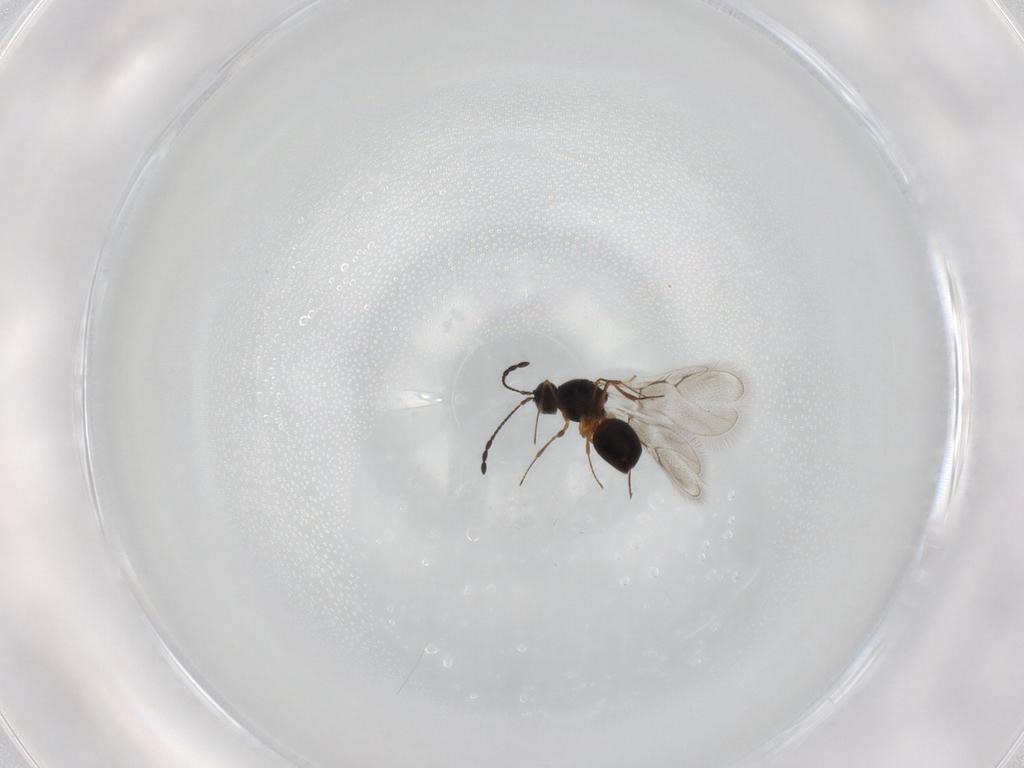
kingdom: Animalia
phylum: Arthropoda
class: Insecta
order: Hymenoptera
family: Figitidae
